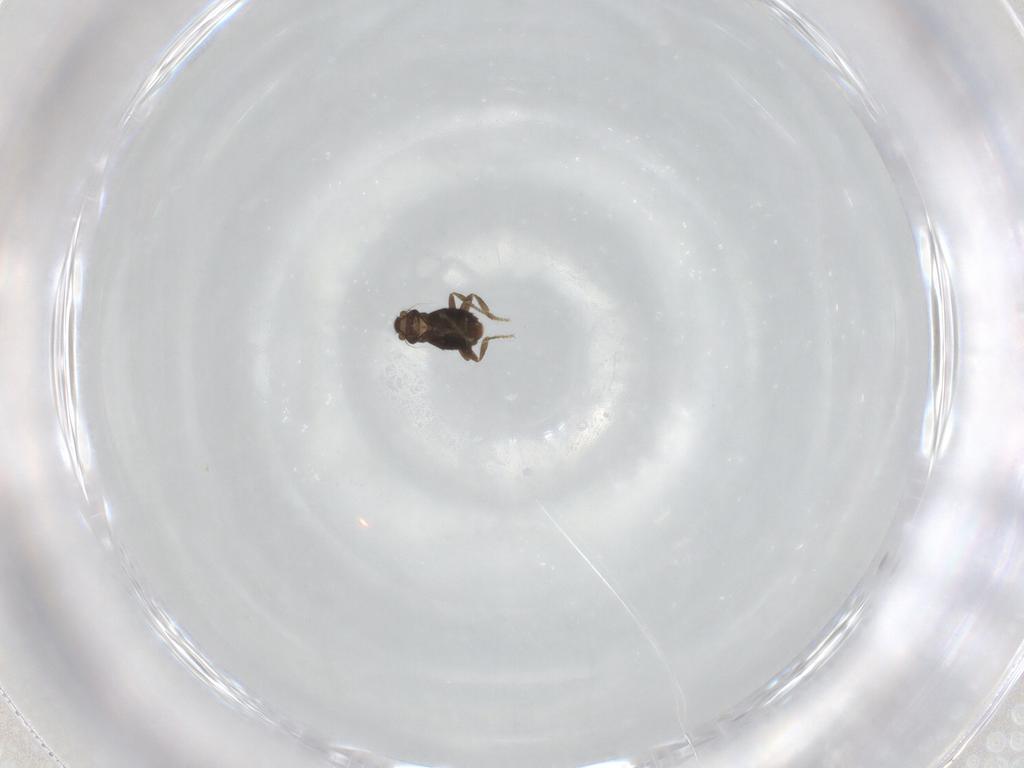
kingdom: Animalia
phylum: Arthropoda
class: Insecta
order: Diptera
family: Phoridae
